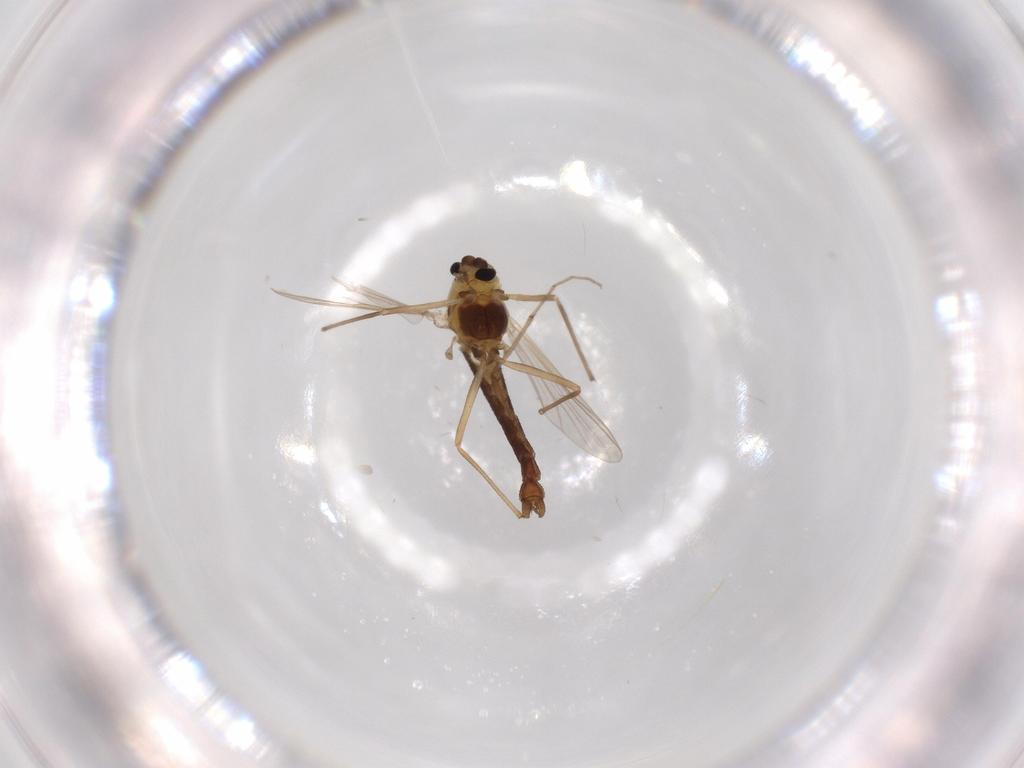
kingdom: Animalia
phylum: Arthropoda
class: Insecta
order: Diptera
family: Chironomidae
